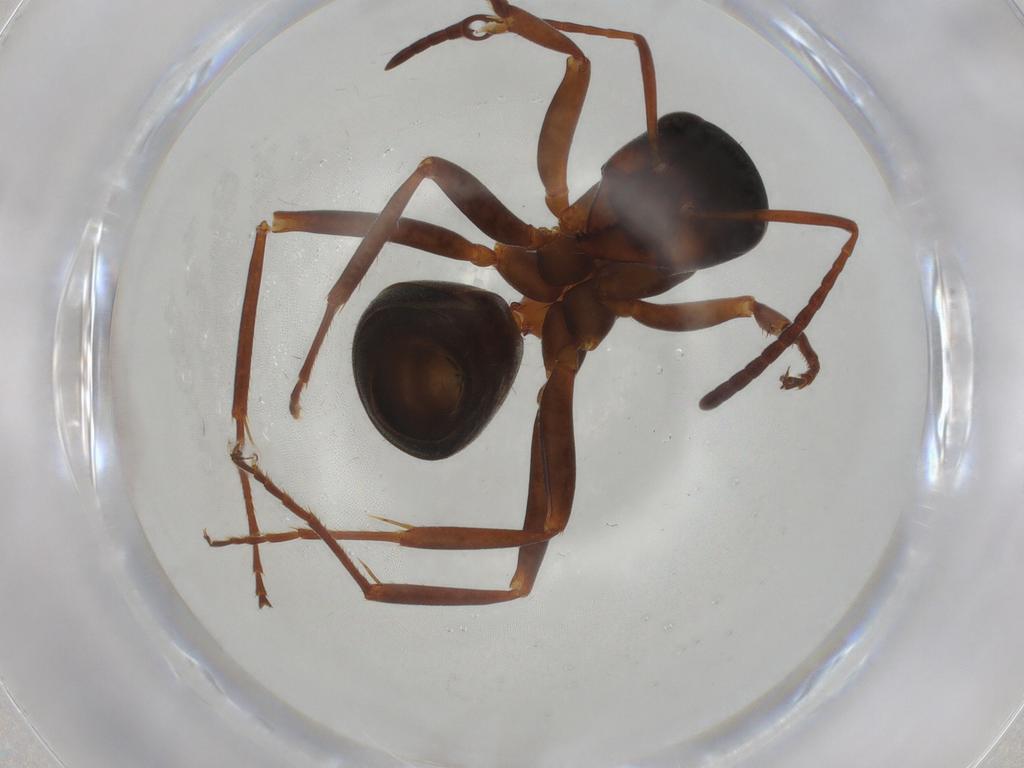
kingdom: Animalia
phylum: Arthropoda
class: Insecta
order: Hymenoptera
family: Formicidae
